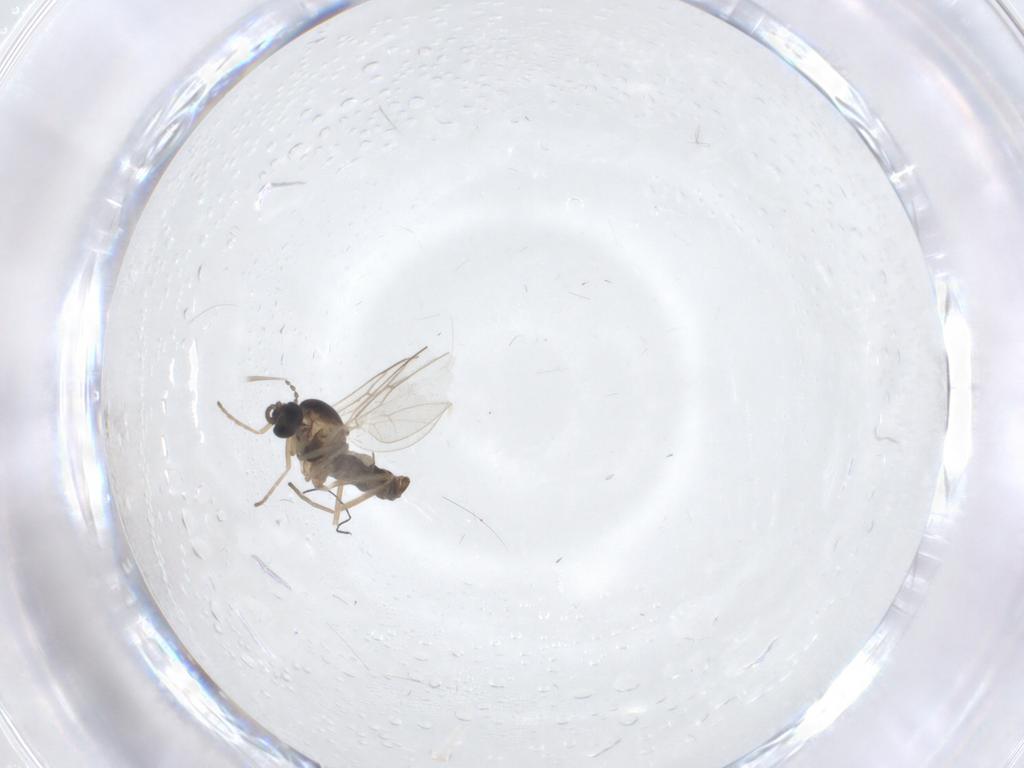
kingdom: Animalia
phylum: Arthropoda
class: Insecta
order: Diptera
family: Cecidomyiidae
